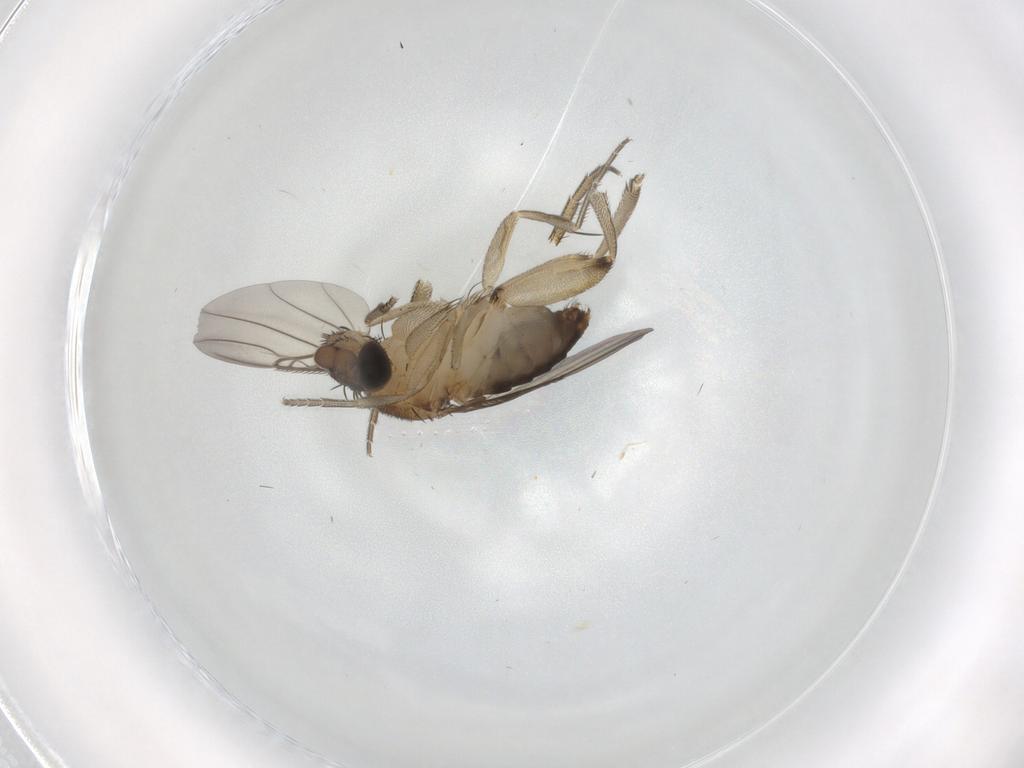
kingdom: Animalia
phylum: Arthropoda
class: Insecta
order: Diptera
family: Phoridae
